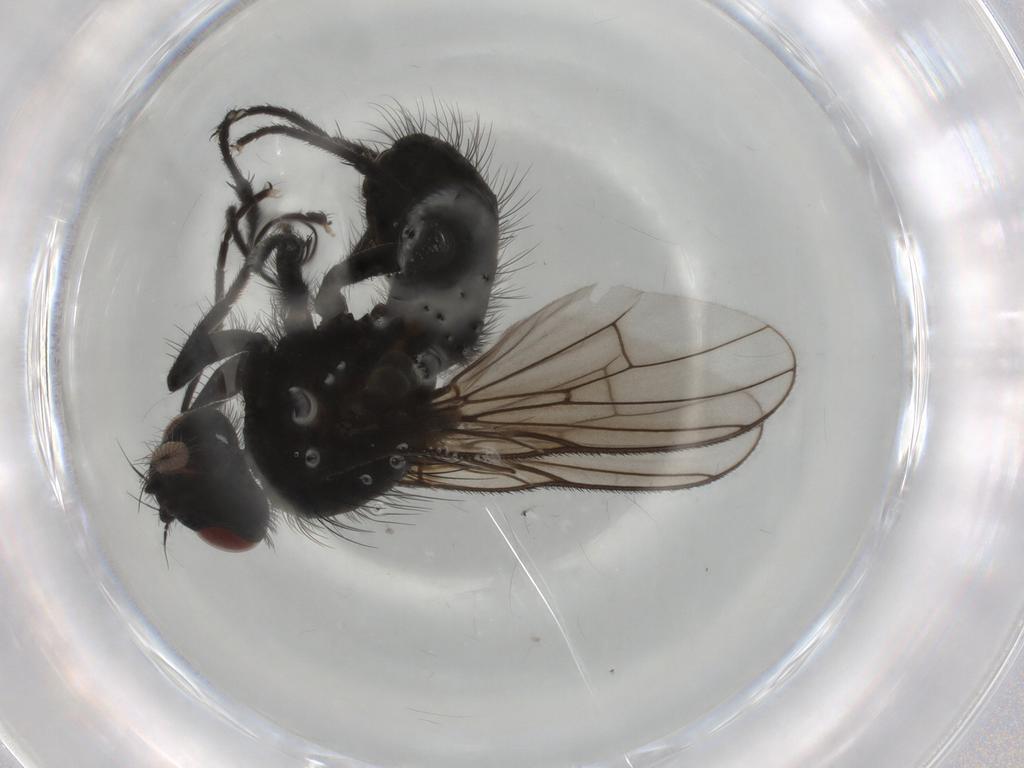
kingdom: Animalia
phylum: Arthropoda
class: Insecta
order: Diptera
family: Muscidae
